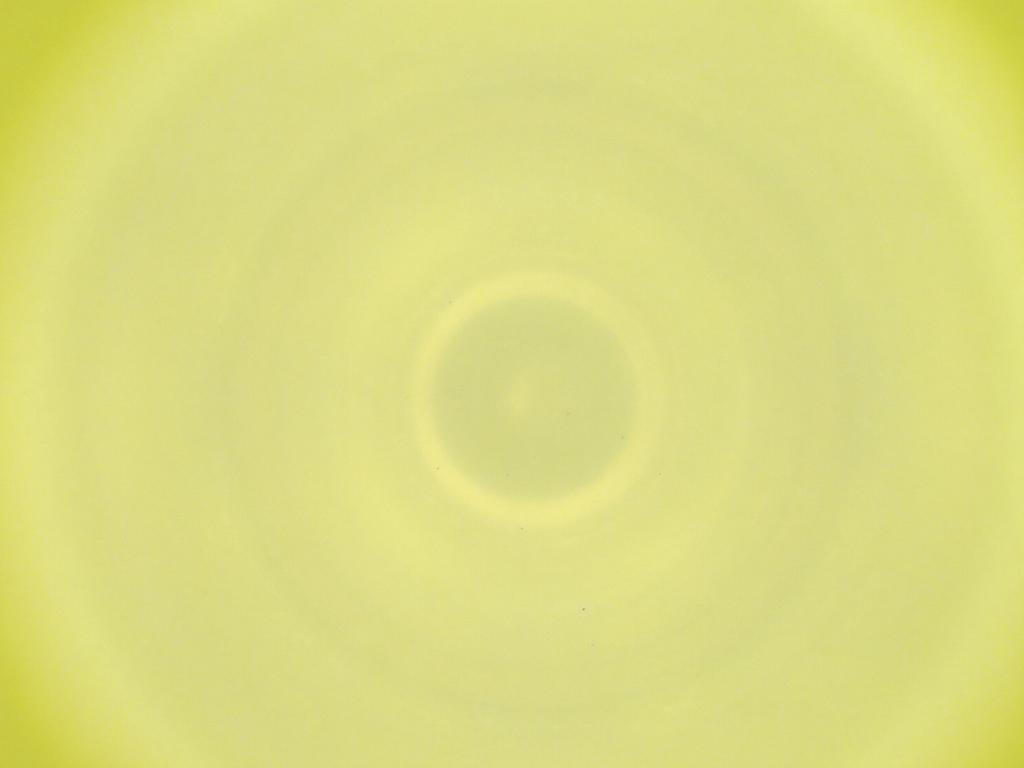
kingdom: Animalia
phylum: Arthropoda
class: Insecta
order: Diptera
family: Cecidomyiidae
